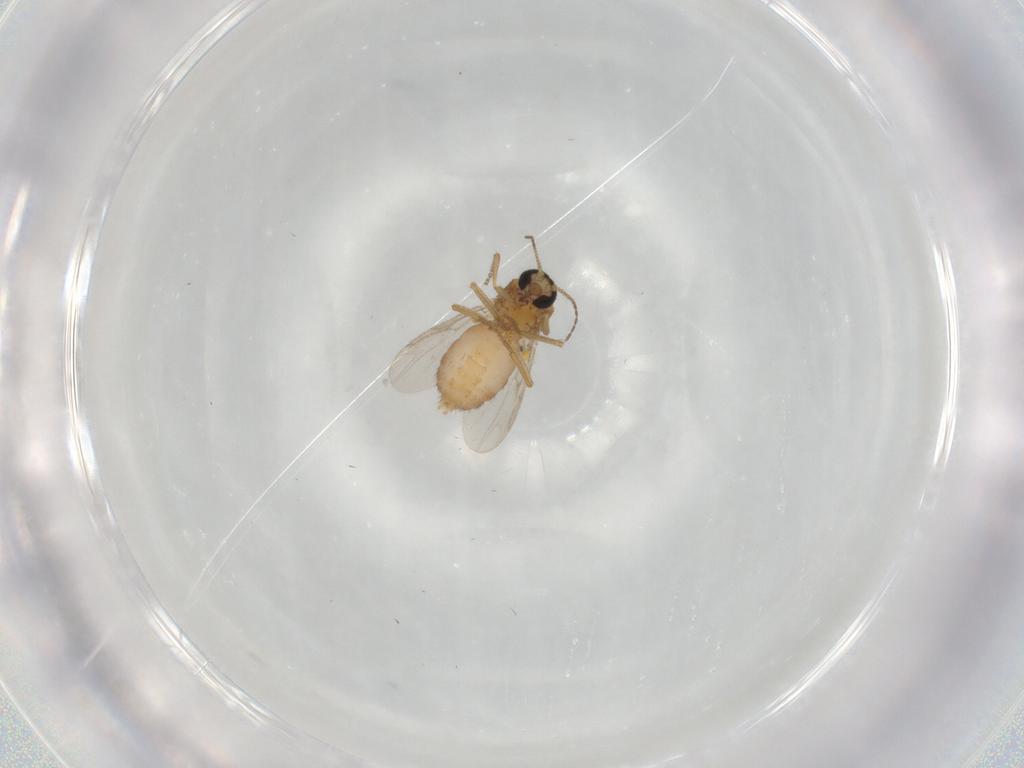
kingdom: Animalia
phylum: Arthropoda
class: Insecta
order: Diptera
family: Ceratopogonidae
